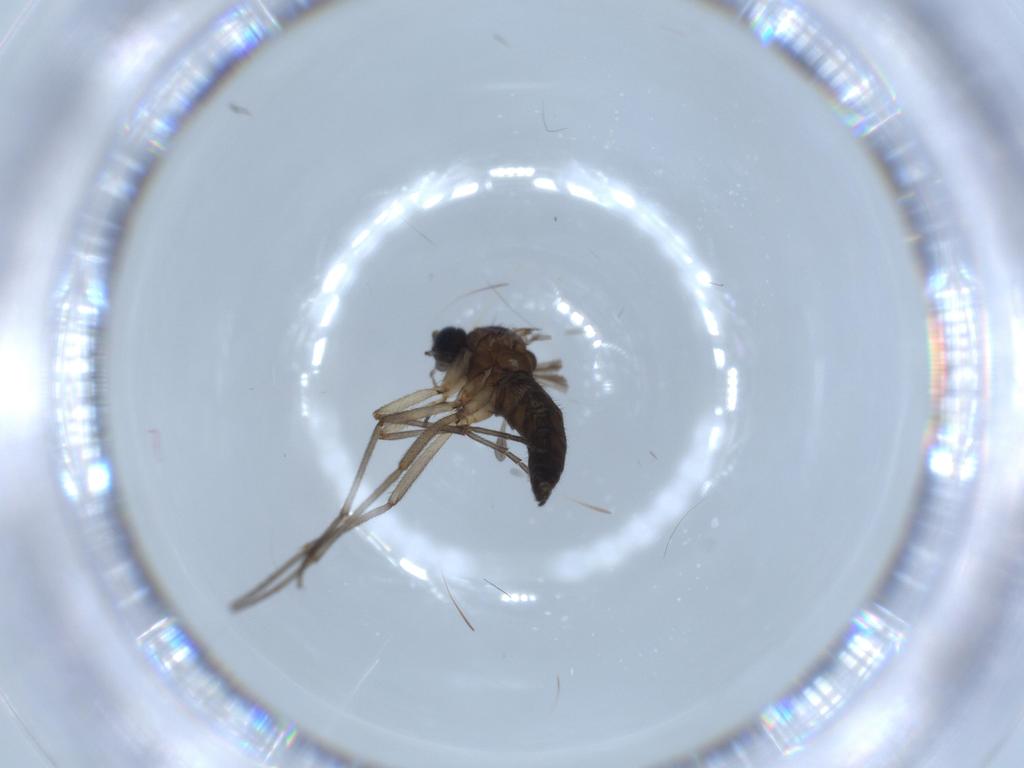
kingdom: Animalia
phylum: Arthropoda
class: Insecta
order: Diptera
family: Sciaridae
